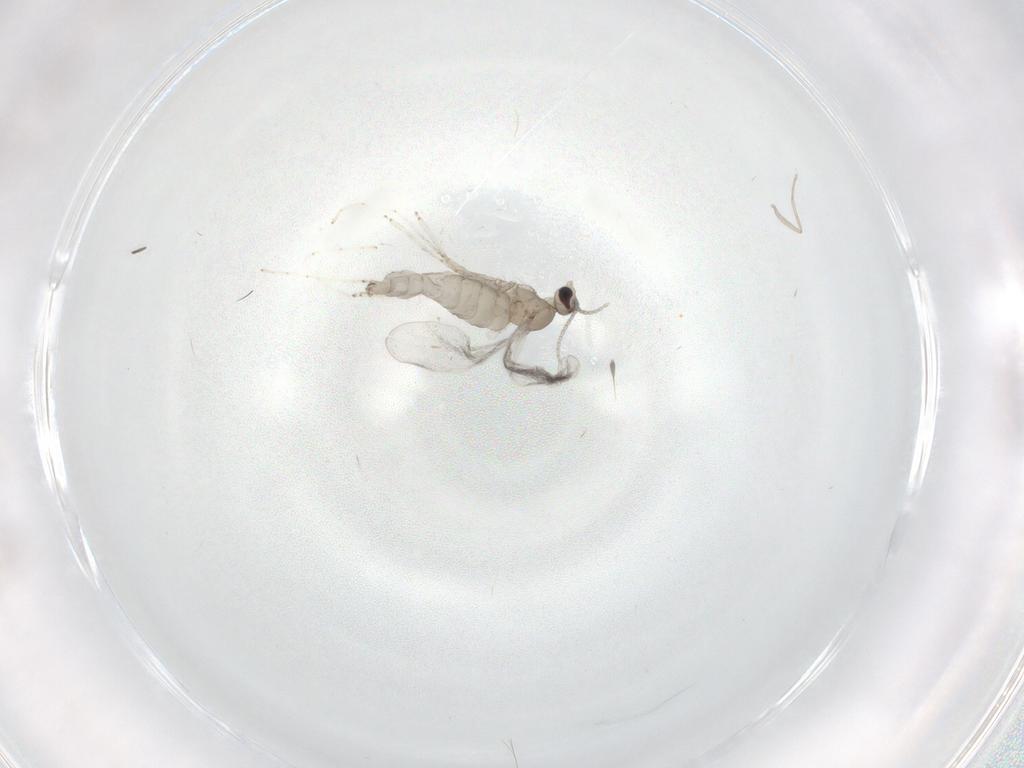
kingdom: Animalia
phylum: Arthropoda
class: Insecta
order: Diptera
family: Cecidomyiidae
